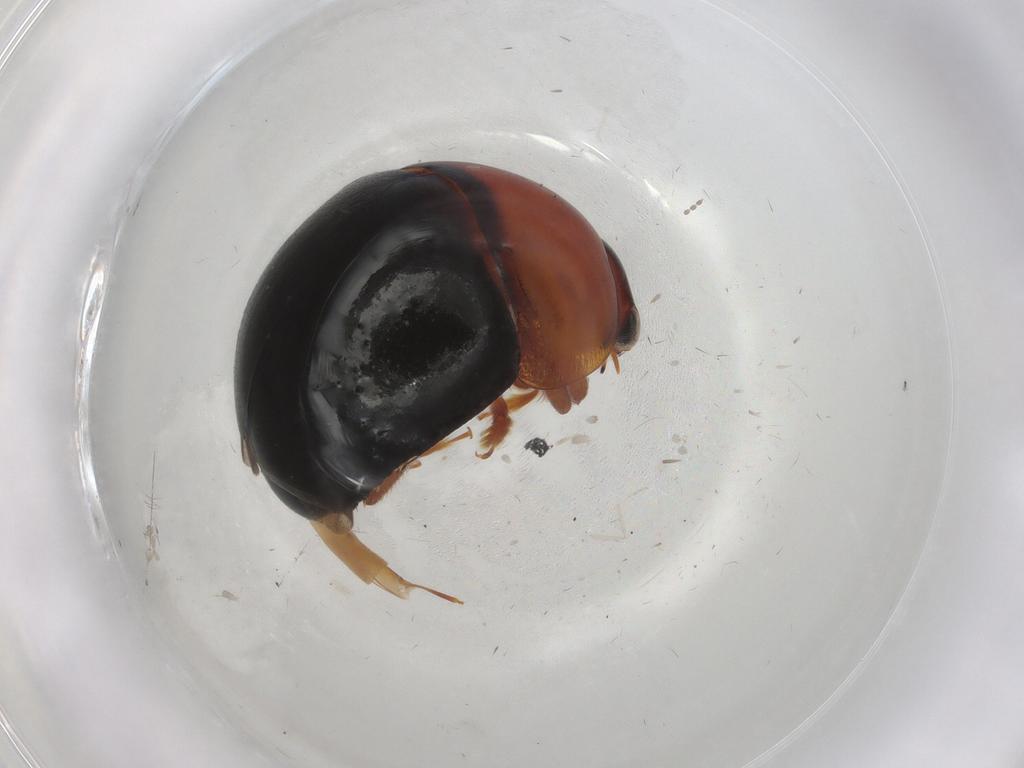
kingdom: Animalia
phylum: Arthropoda
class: Insecta
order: Coleoptera
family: Nitidulidae
